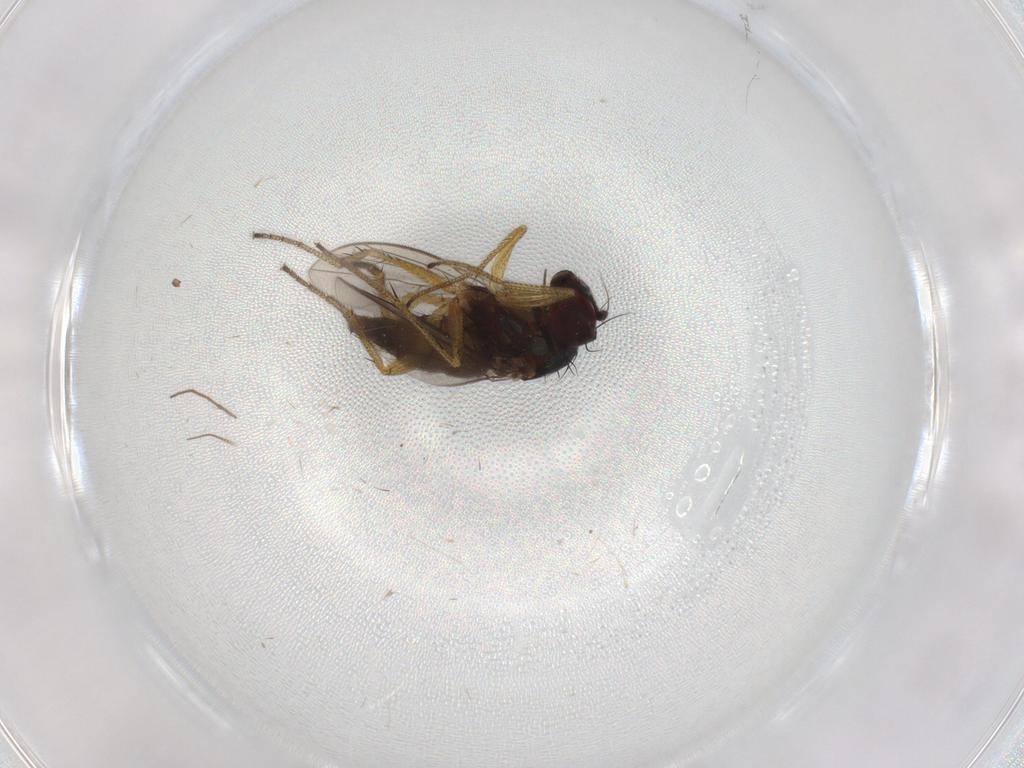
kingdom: Animalia
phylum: Arthropoda
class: Insecta
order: Diptera
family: Dolichopodidae
